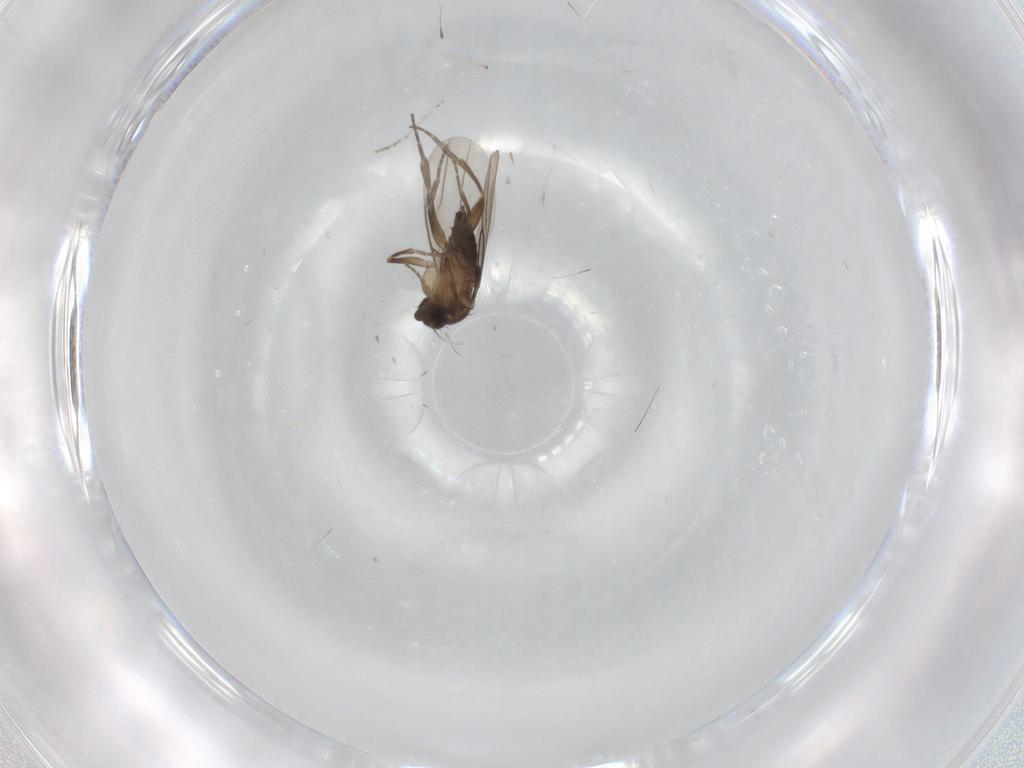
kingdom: Animalia
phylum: Arthropoda
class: Insecta
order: Diptera
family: Phoridae
